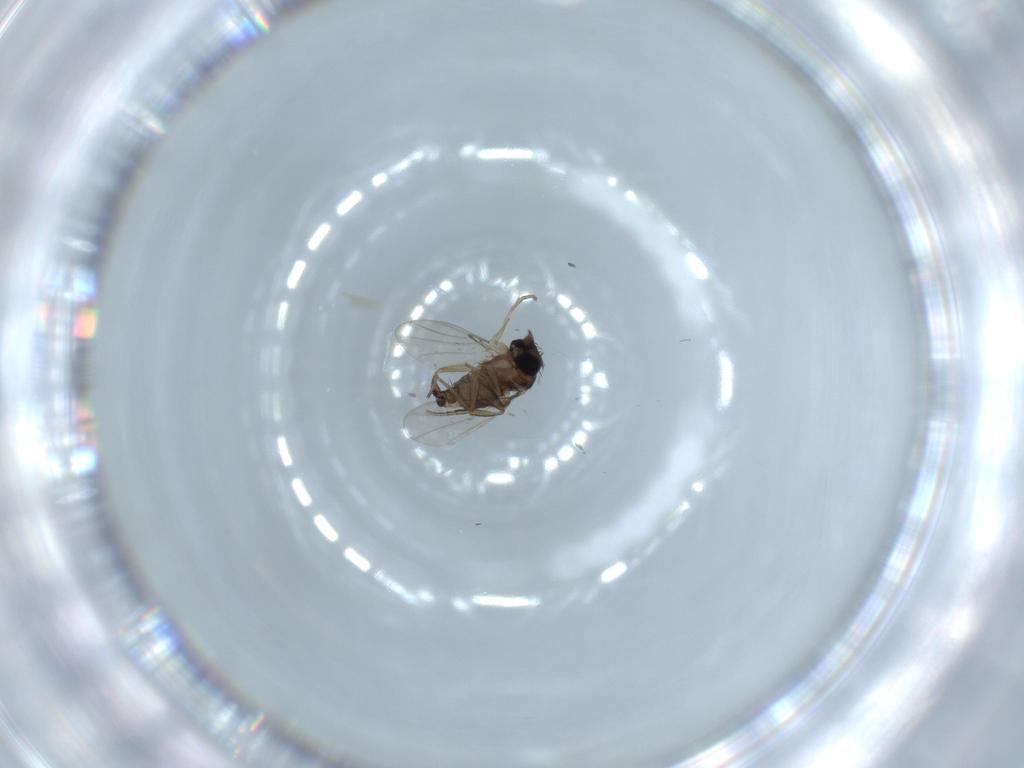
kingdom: Animalia
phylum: Arthropoda
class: Insecta
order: Diptera
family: Phoridae
